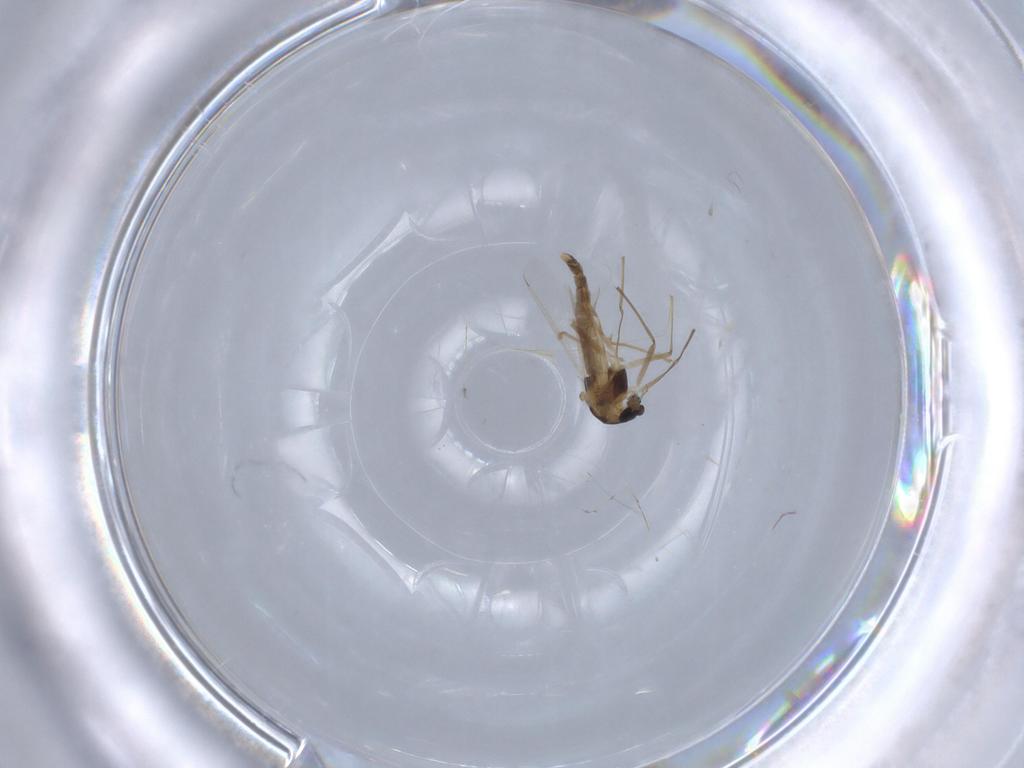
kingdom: Animalia
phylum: Arthropoda
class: Insecta
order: Diptera
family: Chironomidae
